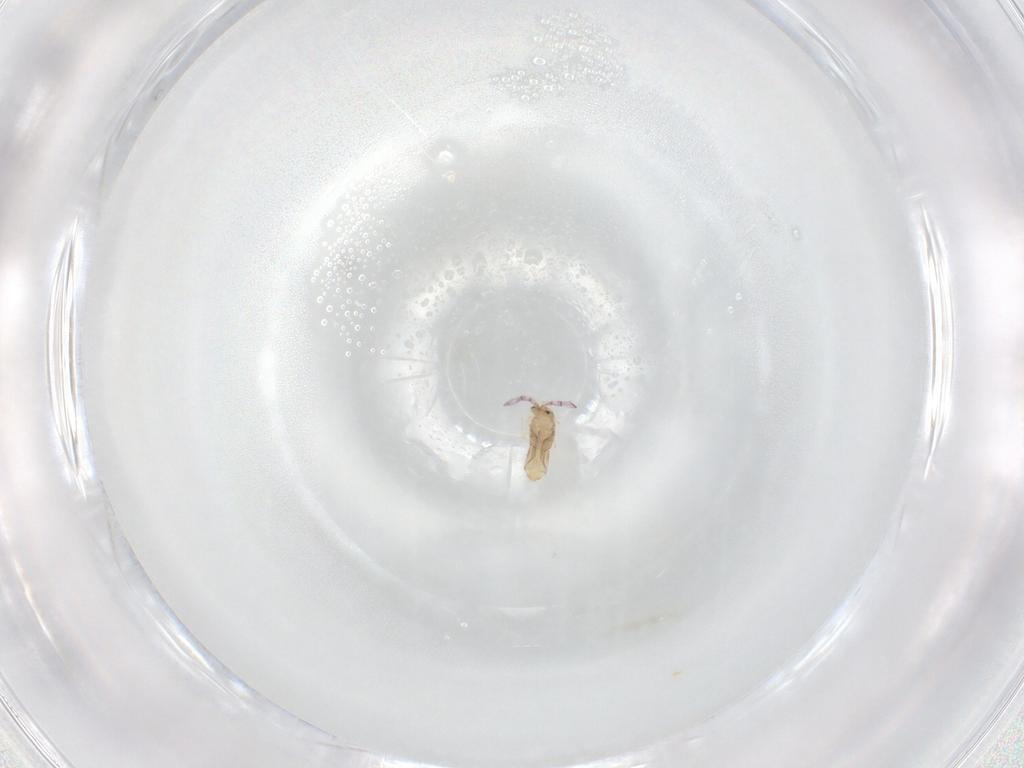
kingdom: Animalia
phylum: Arthropoda
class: Collembola
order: Entomobryomorpha
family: Entomobryidae
